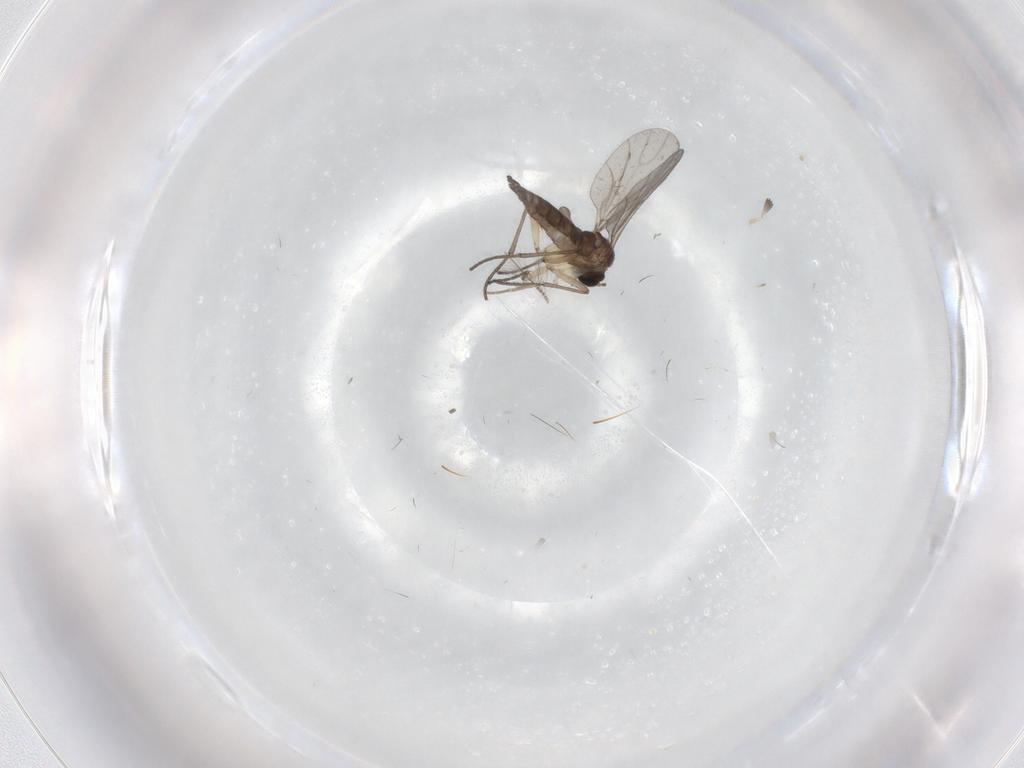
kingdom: Animalia
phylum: Arthropoda
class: Insecta
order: Diptera
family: Sciaridae
